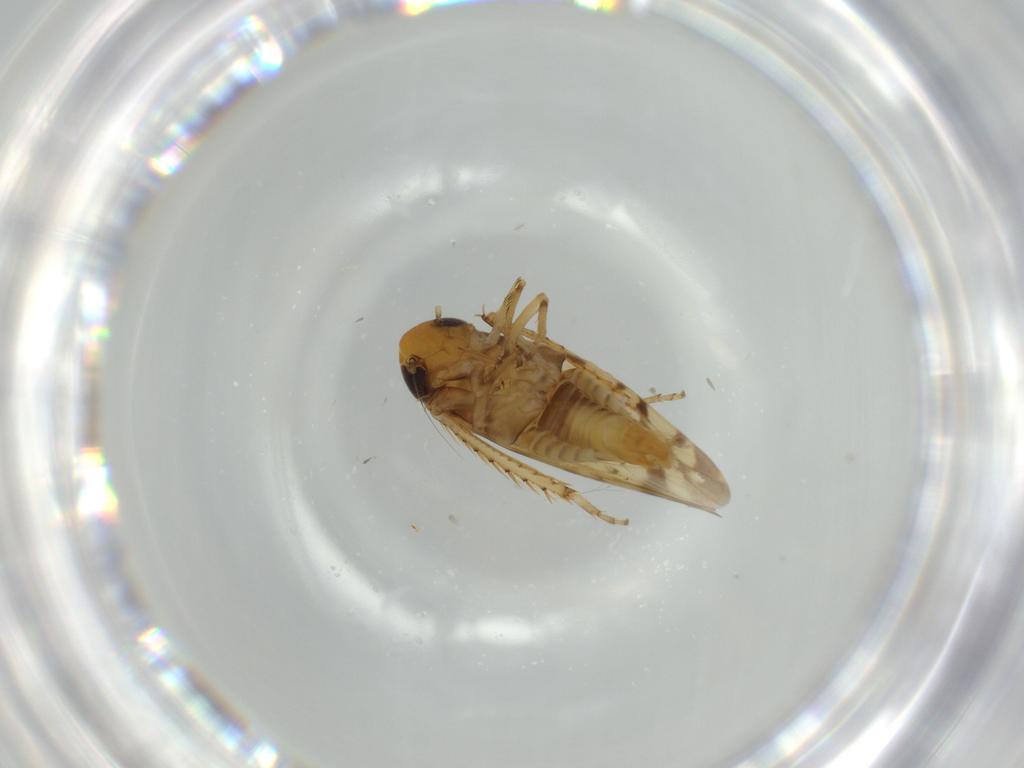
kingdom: Animalia
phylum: Arthropoda
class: Insecta
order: Hemiptera
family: Cicadellidae
